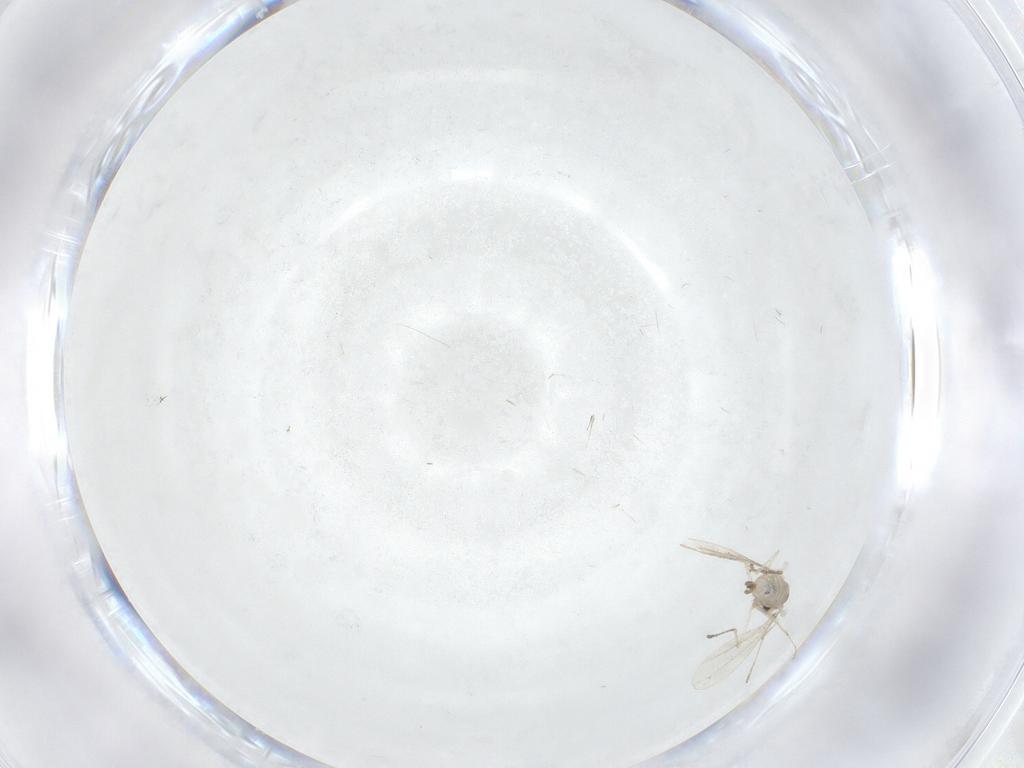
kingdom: Animalia
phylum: Arthropoda
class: Insecta
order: Diptera
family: Cecidomyiidae
